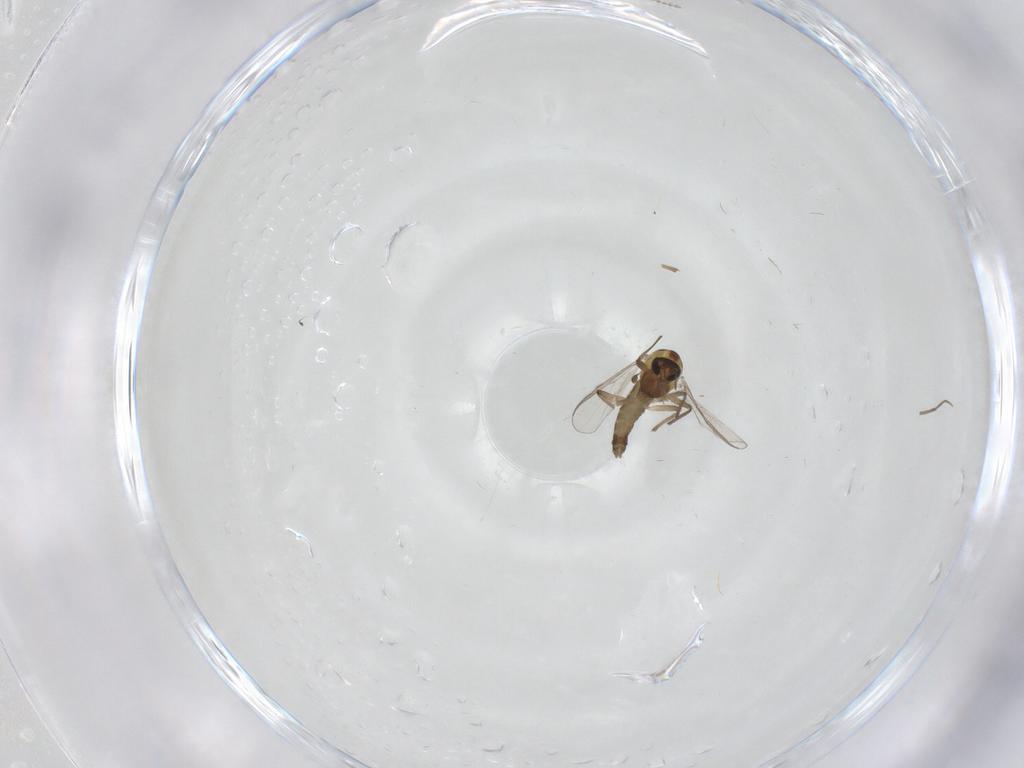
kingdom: Animalia
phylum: Arthropoda
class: Insecta
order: Diptera
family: Chironomidae
